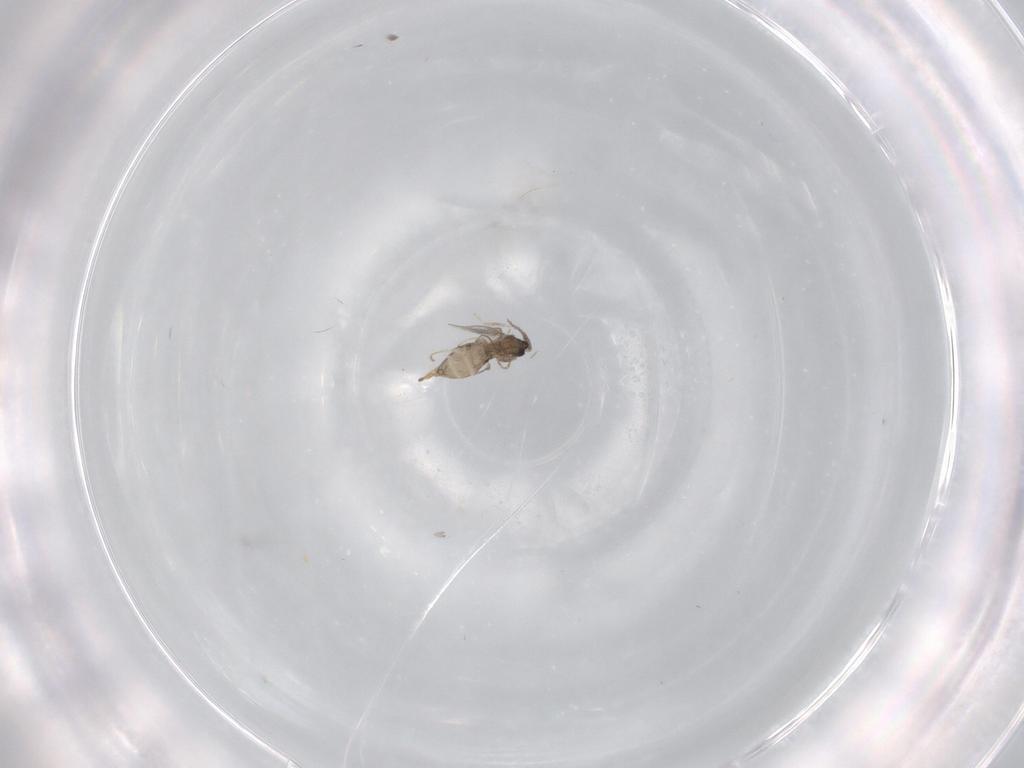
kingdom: Animalia
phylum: Arthropoda
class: Insecta
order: Diptera
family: Cecidomyiidae
